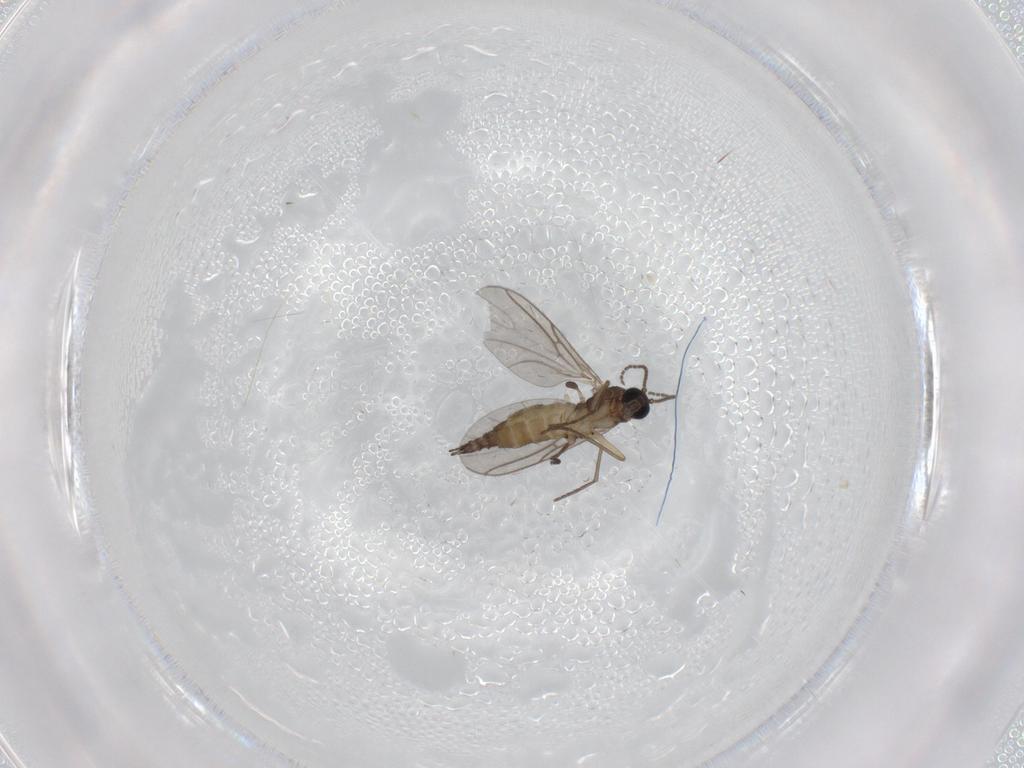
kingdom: Animalia
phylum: Arthropoda
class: Insecta
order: Diptera
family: Sciaridae
